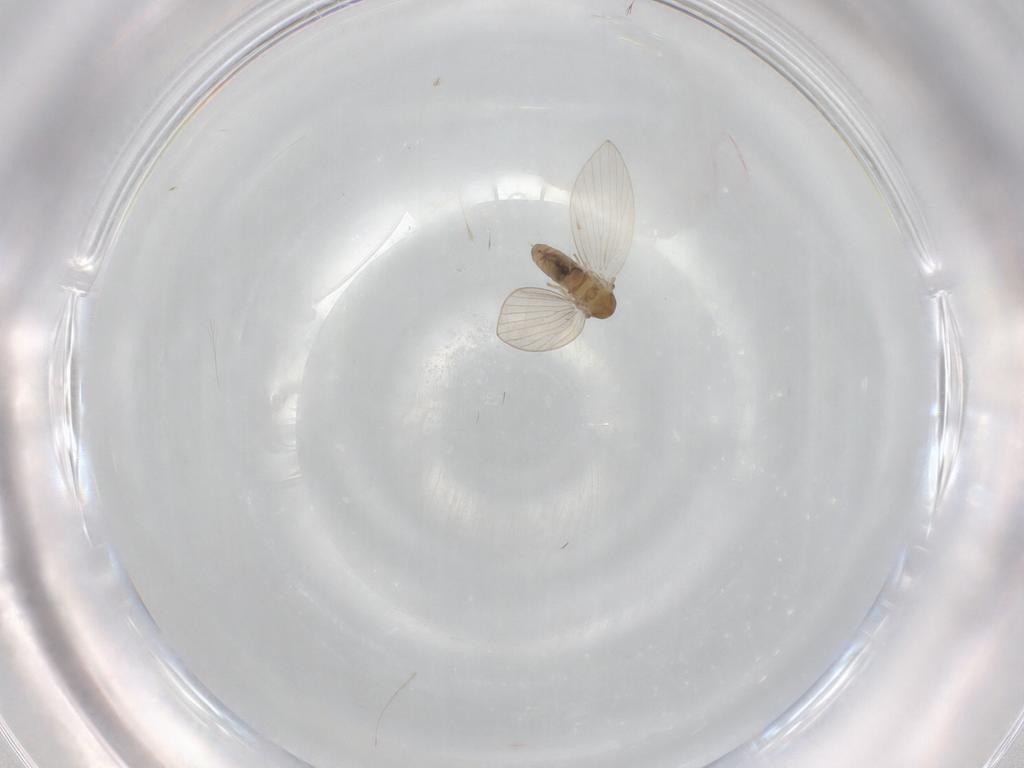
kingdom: Animalia
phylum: Arthropoda
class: Insecta
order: Diptera
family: Psychodidae
